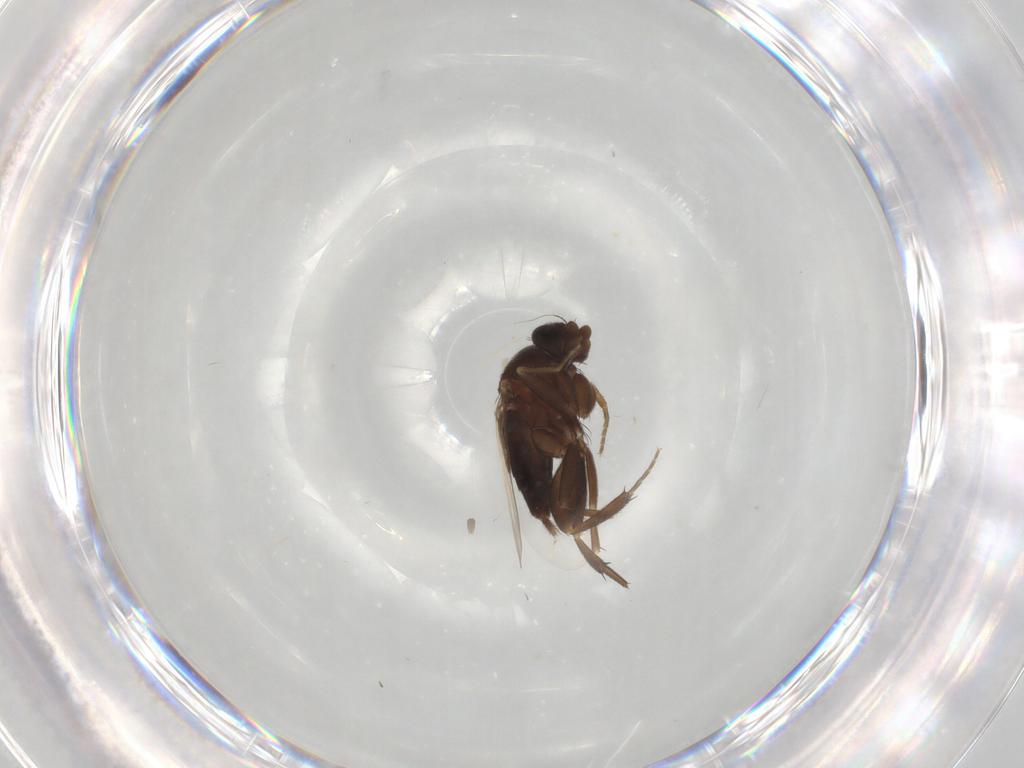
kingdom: Animalia
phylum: Arthropoda
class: Insecta
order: Diptera
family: Phoridae
